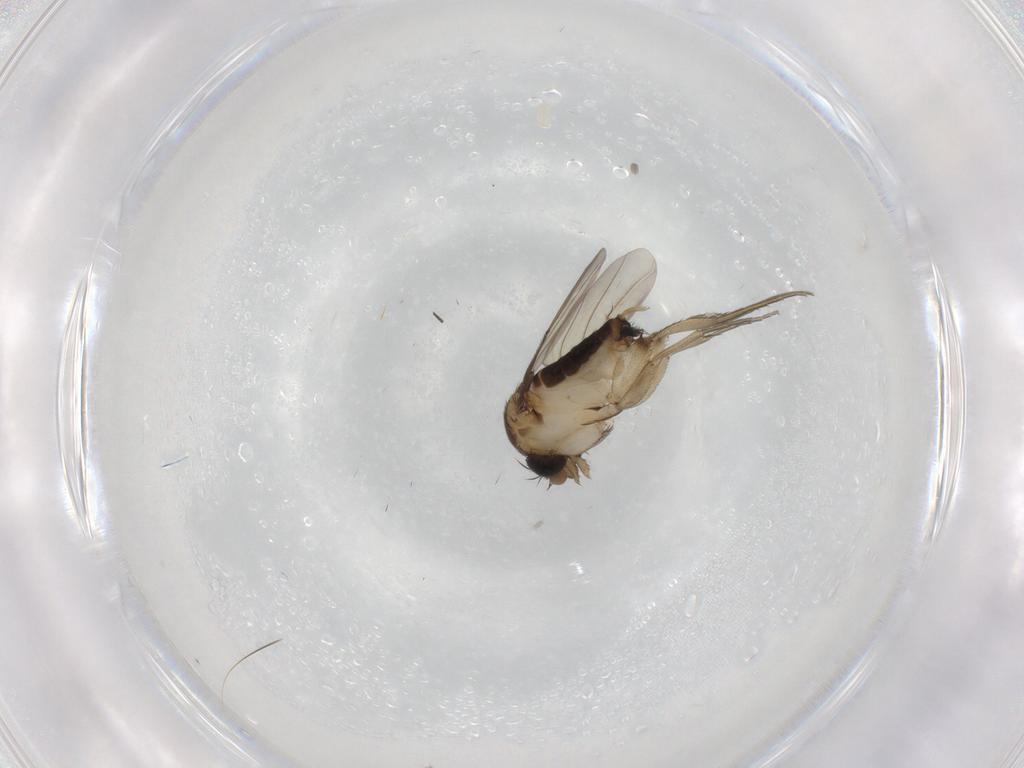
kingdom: Animalia
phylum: Arthropoda
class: Insecta
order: Diptera
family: Phoridae
